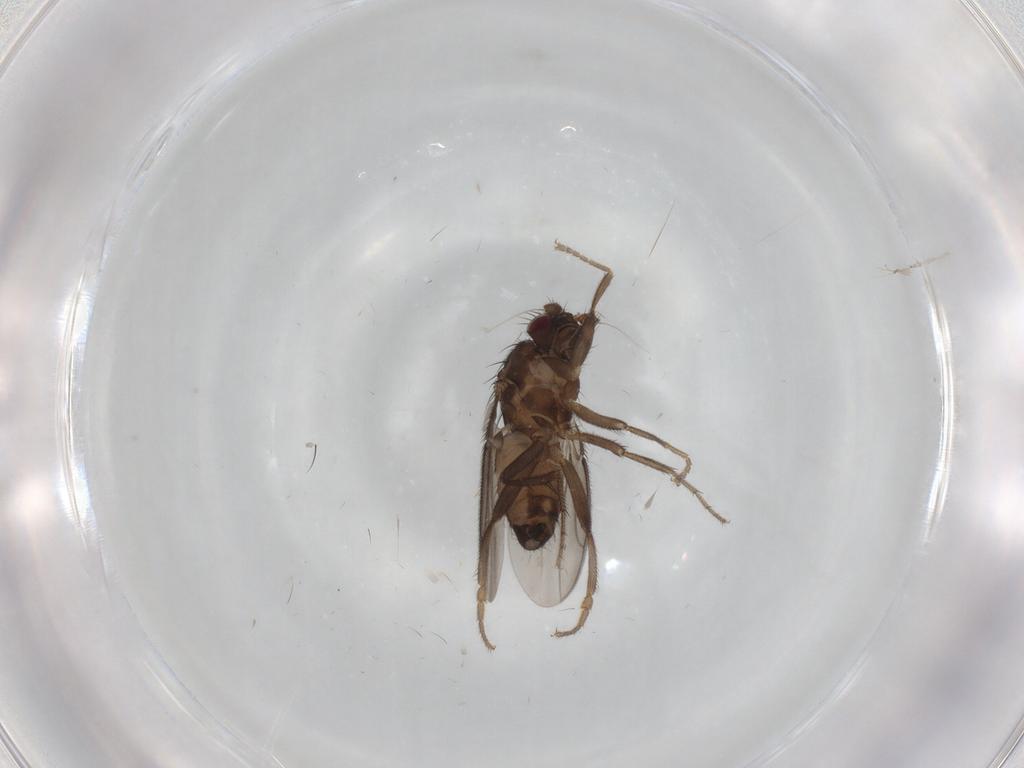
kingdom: Animalia
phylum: Arthropoda
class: Insecta
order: Diptera
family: Sphaeroceridae
